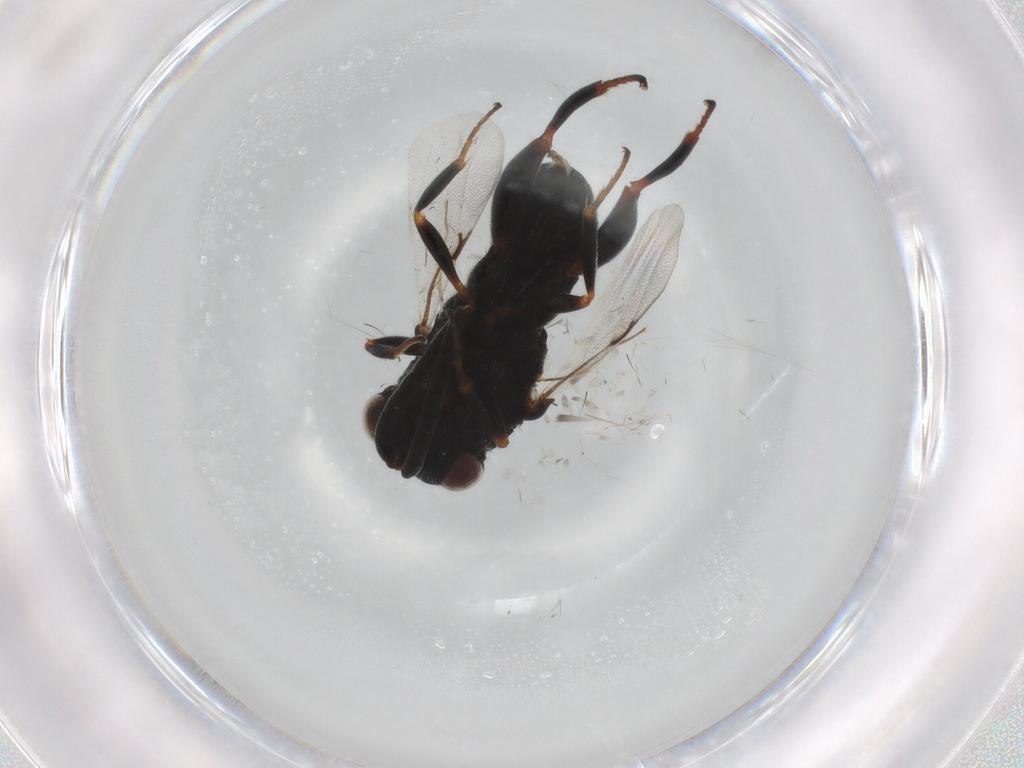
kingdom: Animalia
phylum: Arthropoda
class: Insecta
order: Hymenoptera
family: Chalcididae
